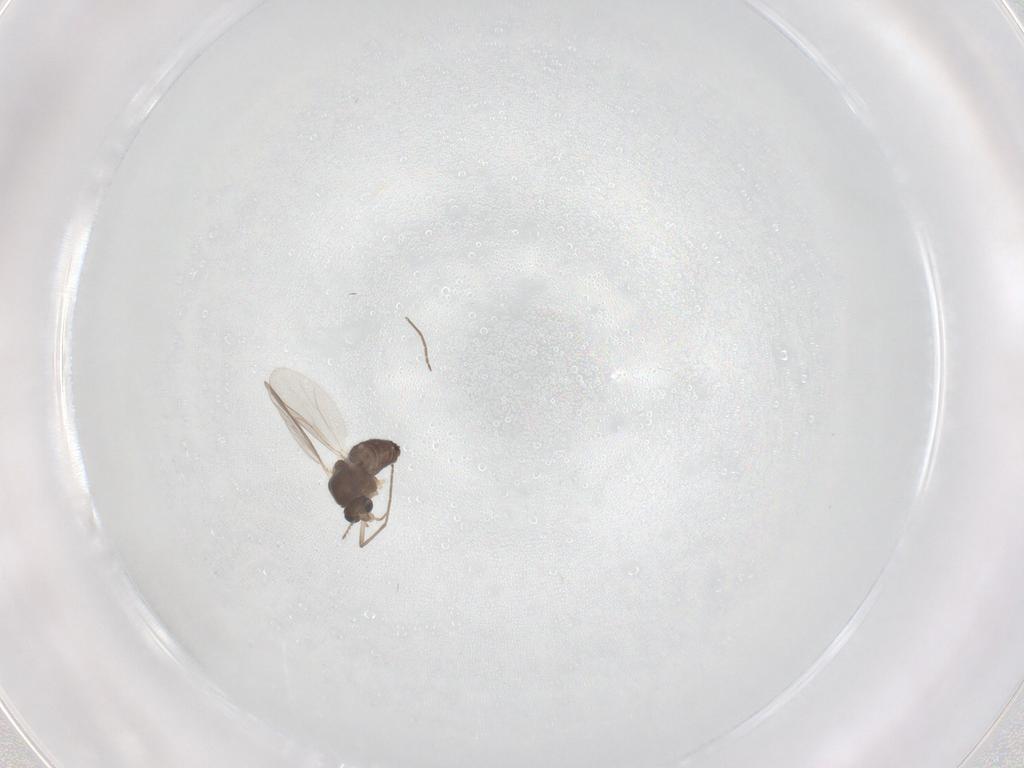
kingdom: Animalia
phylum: Arthropoda
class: Insecta
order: Diptera
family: Chironomidae
